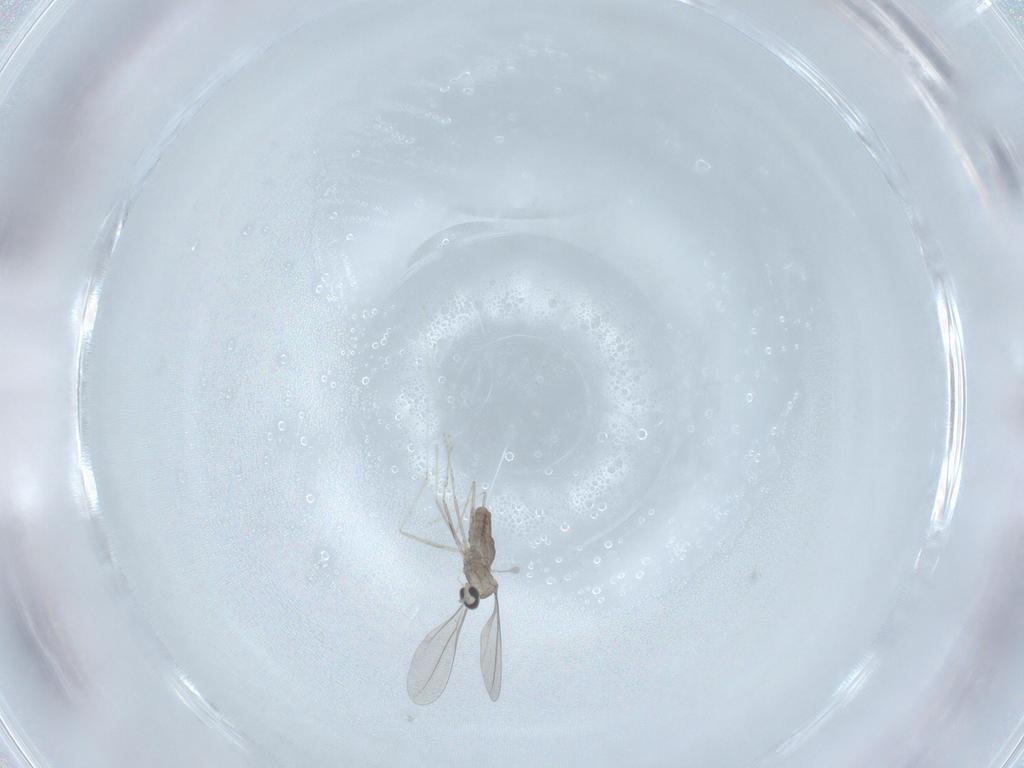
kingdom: Animalia
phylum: Arthropoda
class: Insecta
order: Diptera
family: Cecidomyiidae
